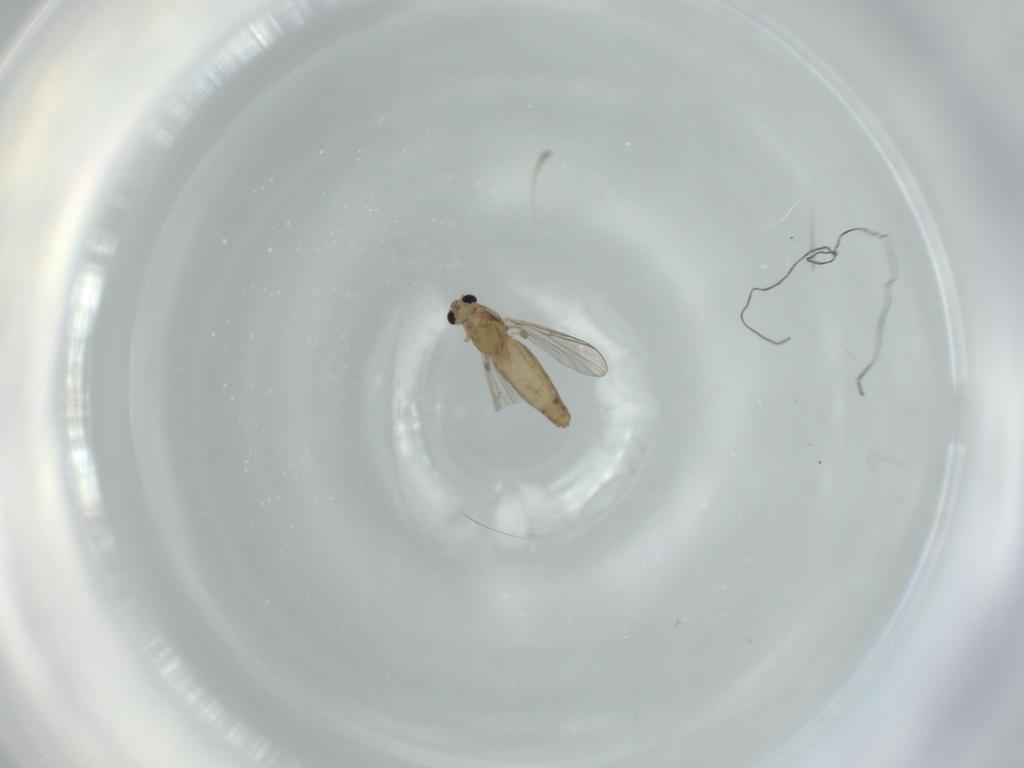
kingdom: Animalia
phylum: Arthropoda
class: Insecta
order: Diptera
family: Chironomidae
